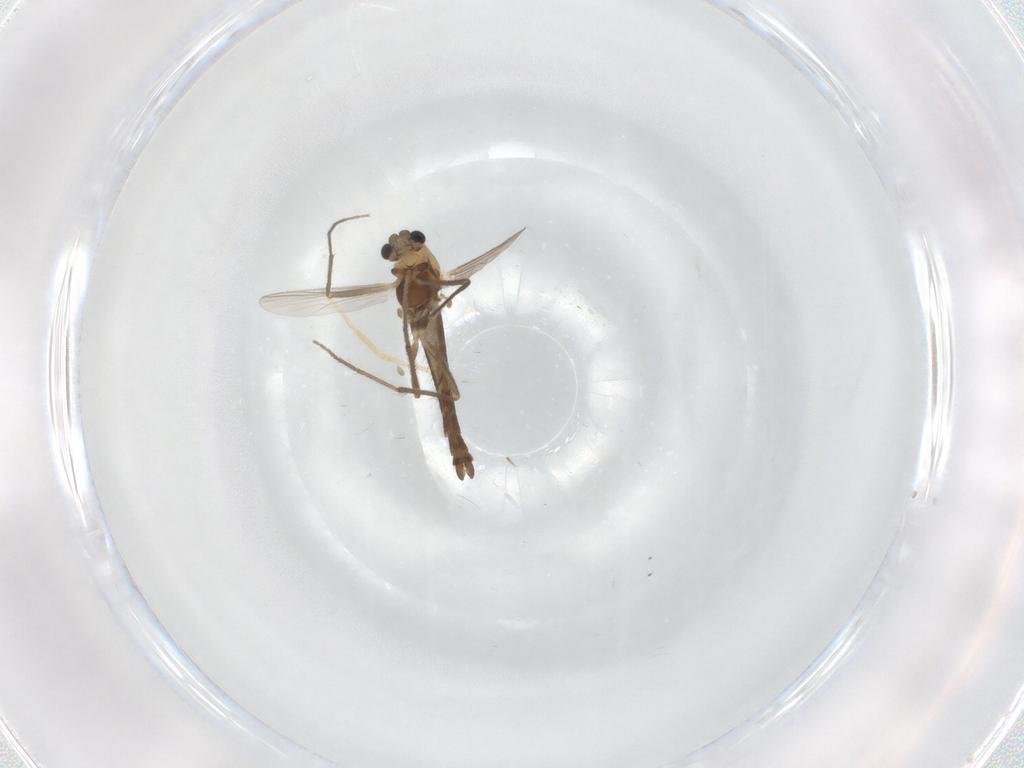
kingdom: Animalia
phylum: Arthropoda
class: Insecta
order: Diptera
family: Chironomidae
